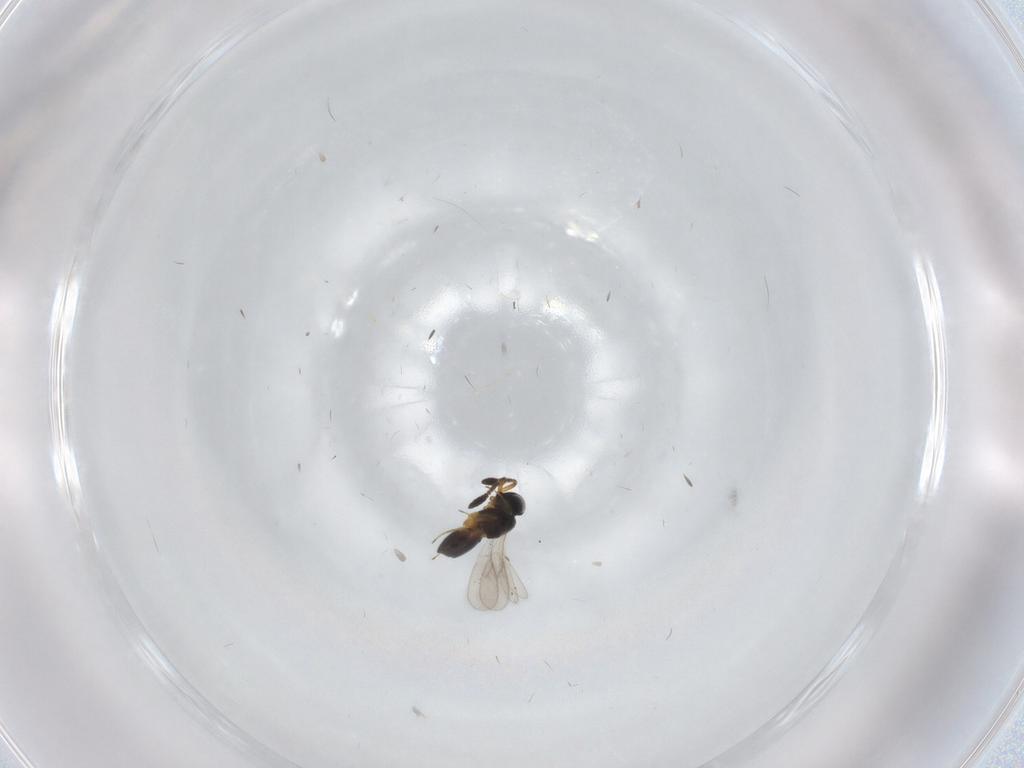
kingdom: Animalia
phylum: Arthropoda
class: Insecta
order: Hymenoptera
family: Scelionidae
